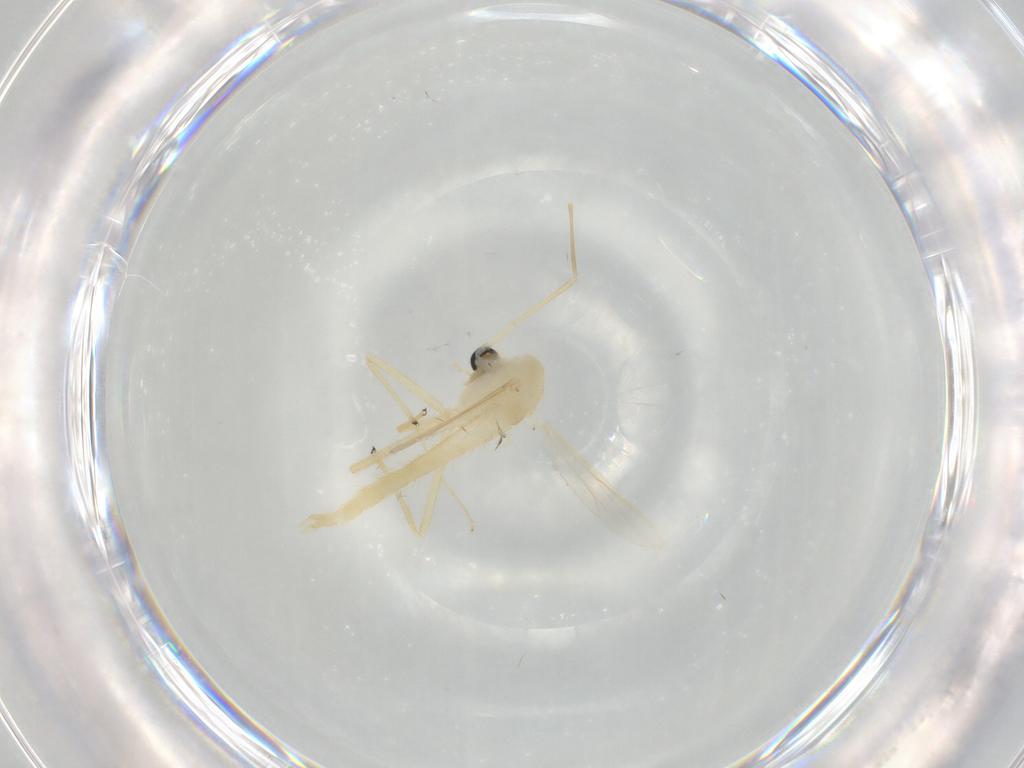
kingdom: Animalia
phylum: Arthropoda
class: Insecta
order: Diptera
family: Chironomidae
